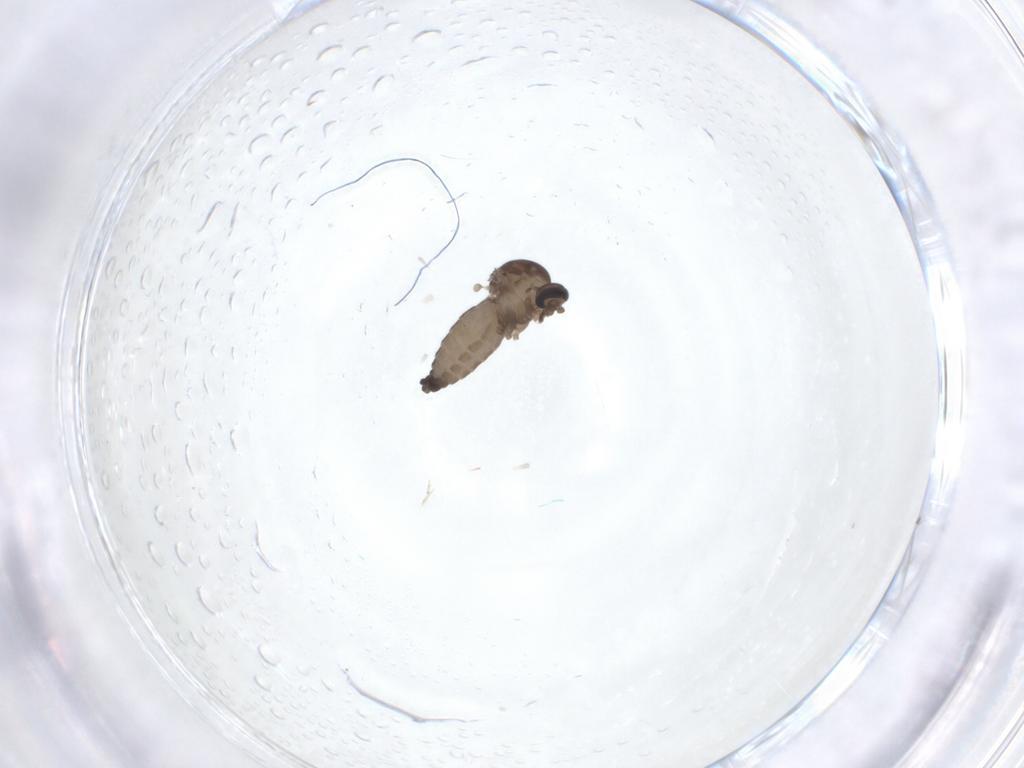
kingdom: Animalia
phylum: Arthropoda
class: Insecta
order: Diptera
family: Ceratopogonidae
